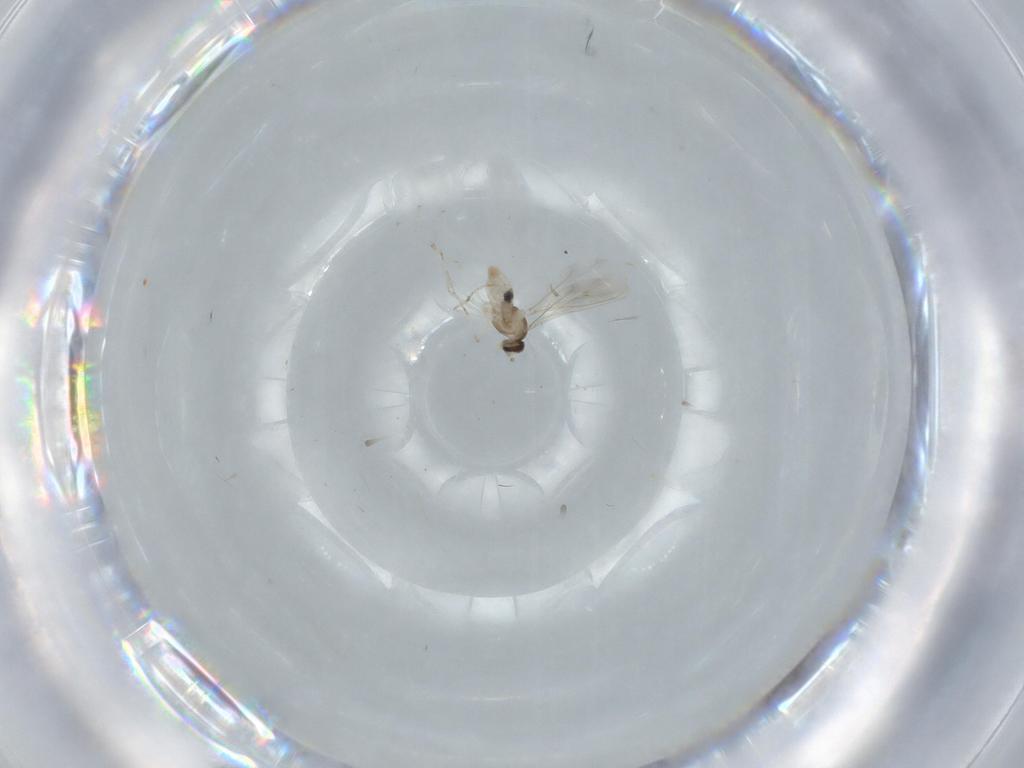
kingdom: Animalia
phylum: Arthropoda
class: Insecta
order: Diptera
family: Cecidomyiidae
